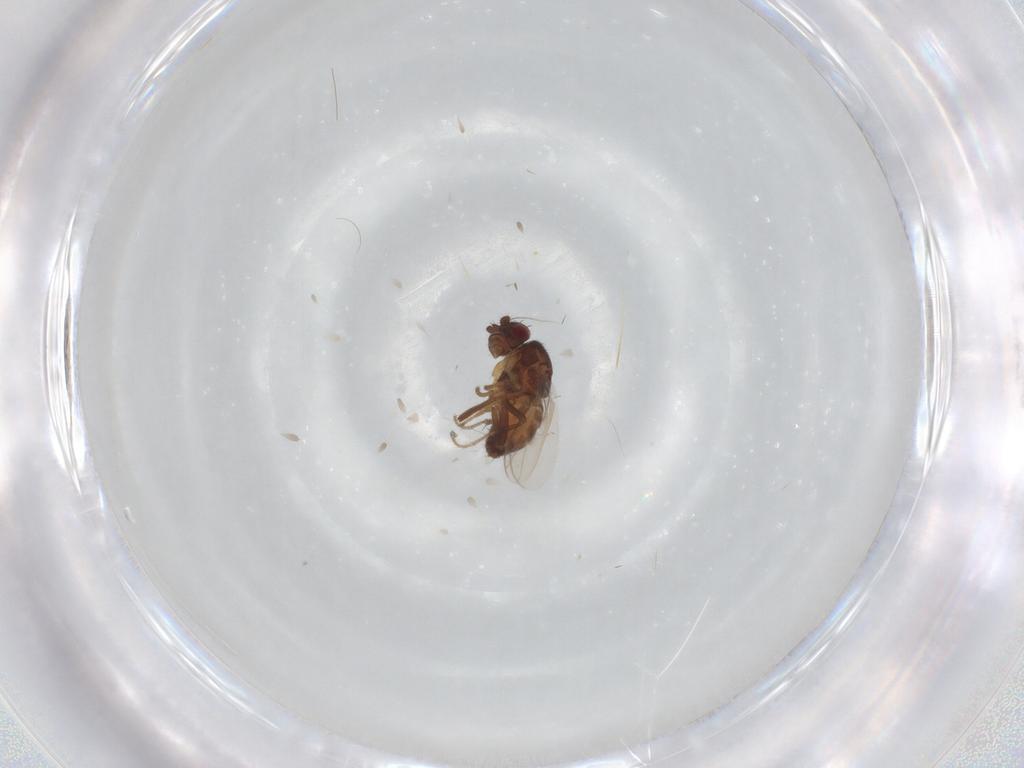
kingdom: Animalia
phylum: Arthropoda
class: Insecta
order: Diptera
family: Sphaeroceridae
